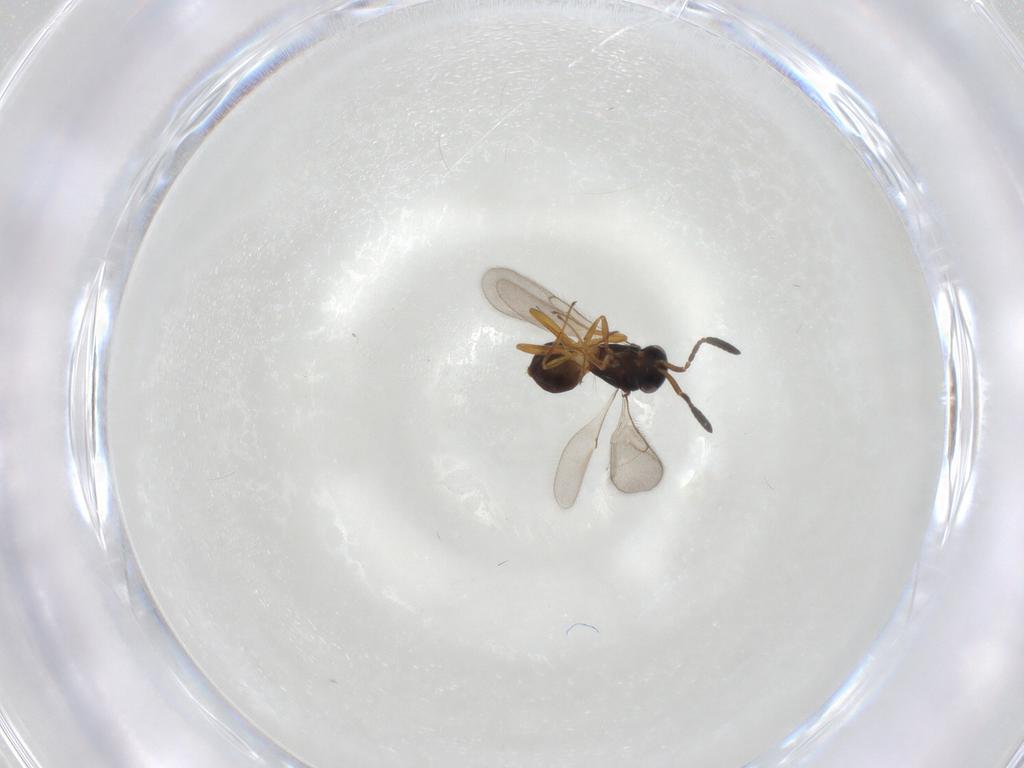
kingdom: Animalia
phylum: Arthropoda
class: Insecta
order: Hymenoptera
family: Scelionidae
